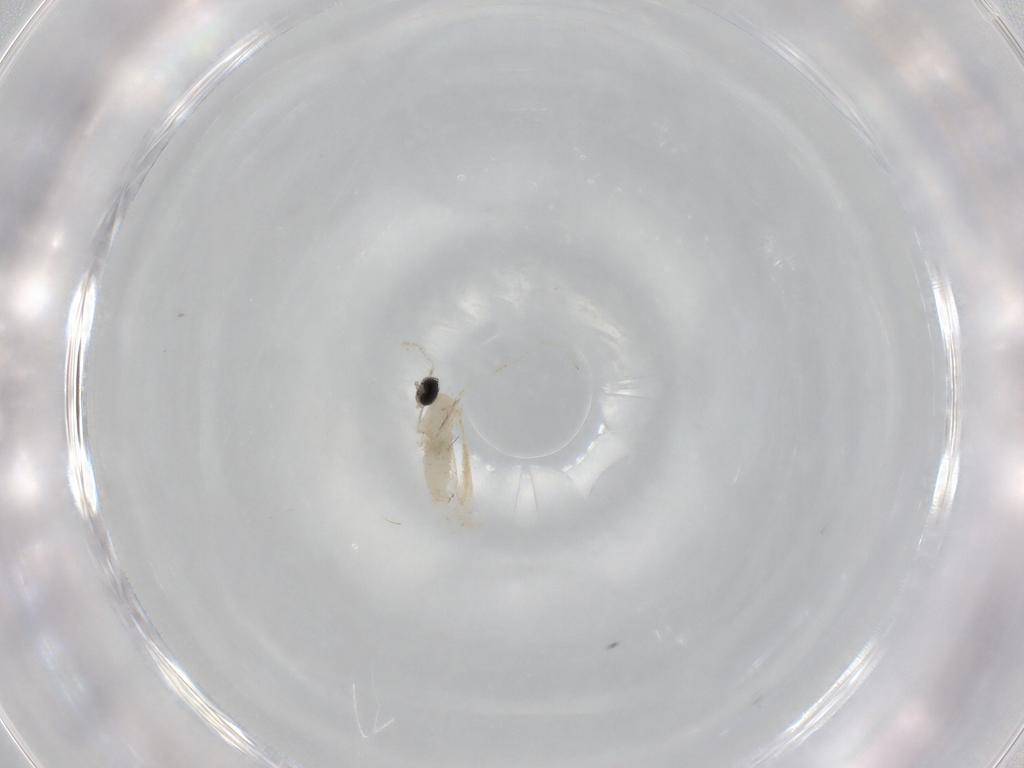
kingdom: Animalia
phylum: Arthropoda
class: Insecta
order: Diptera
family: Cecidomyiidae
